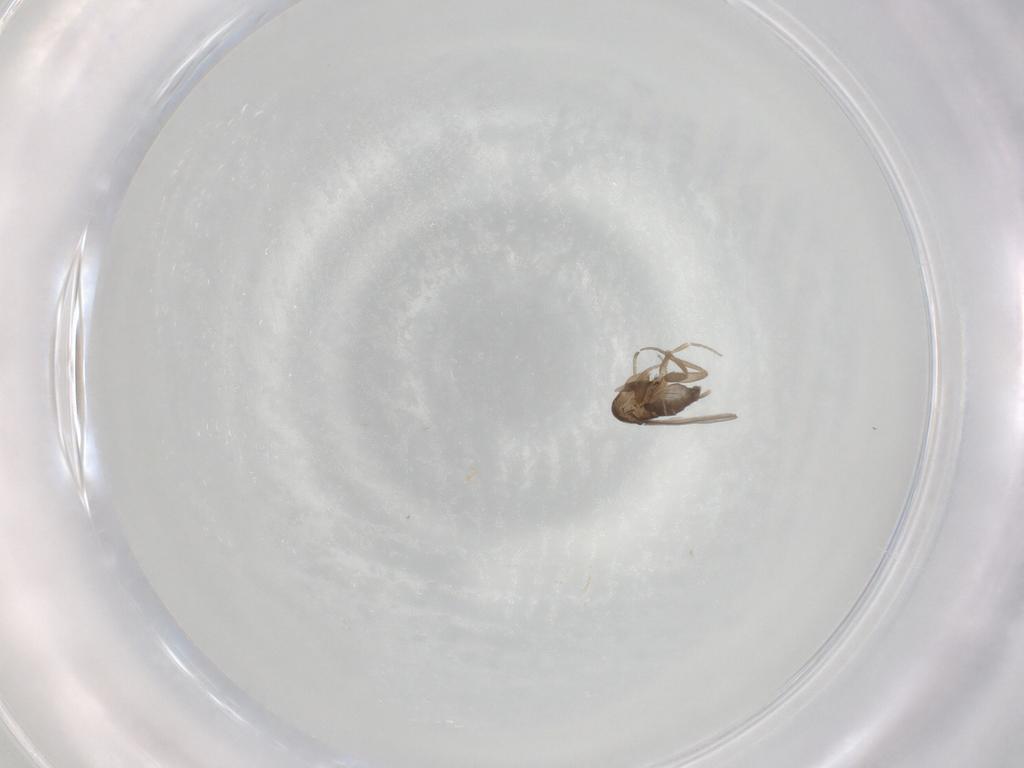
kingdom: Animalia
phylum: Arthropoda
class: Insecta
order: Diptera
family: Phoridae
